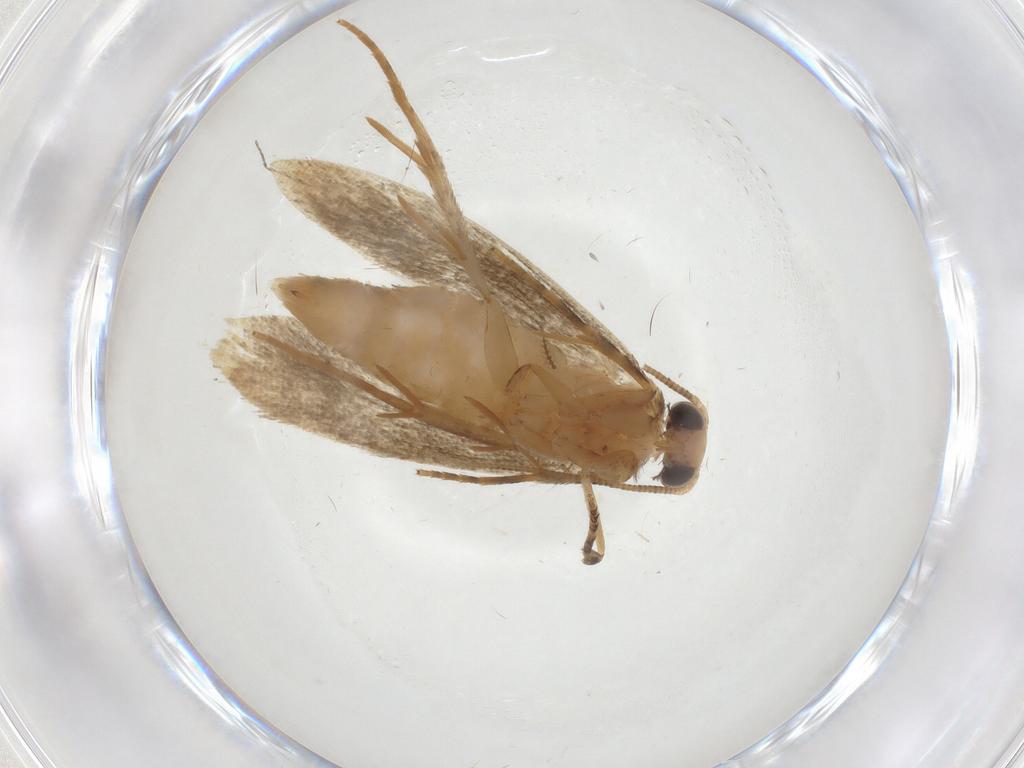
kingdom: Animalia
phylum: Arthropoda
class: Insecta
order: Lepidoptera
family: Tineidae
